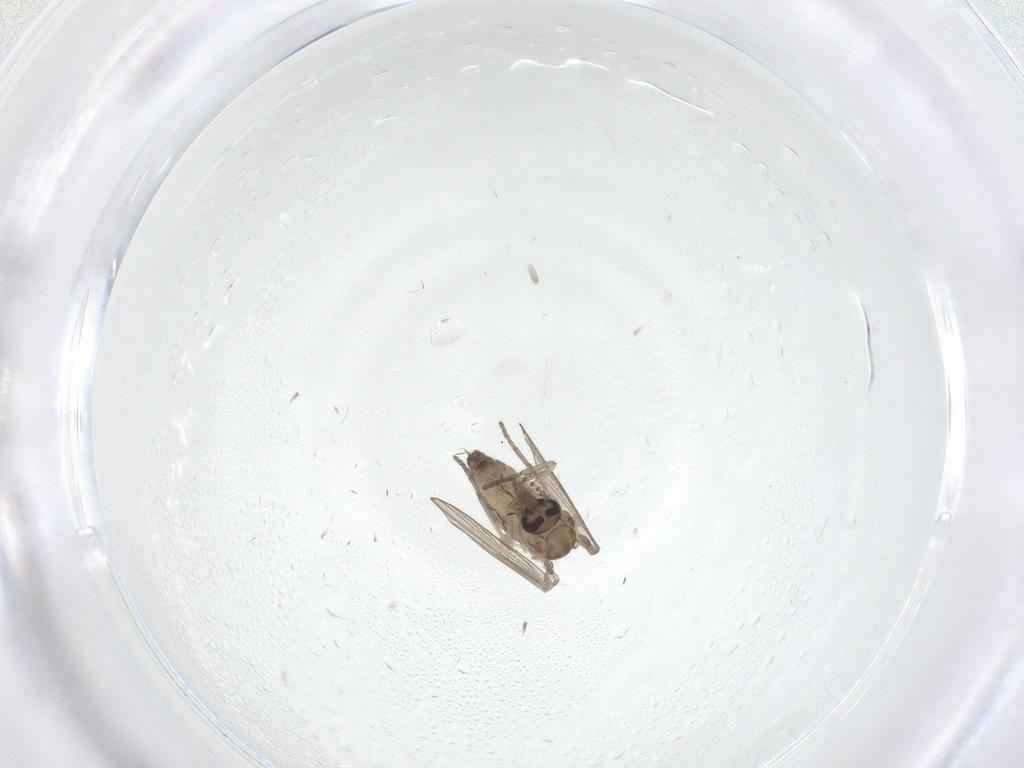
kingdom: Animalia
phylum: Arthropoda
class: Insecta
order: Diptera
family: Psychodidae
